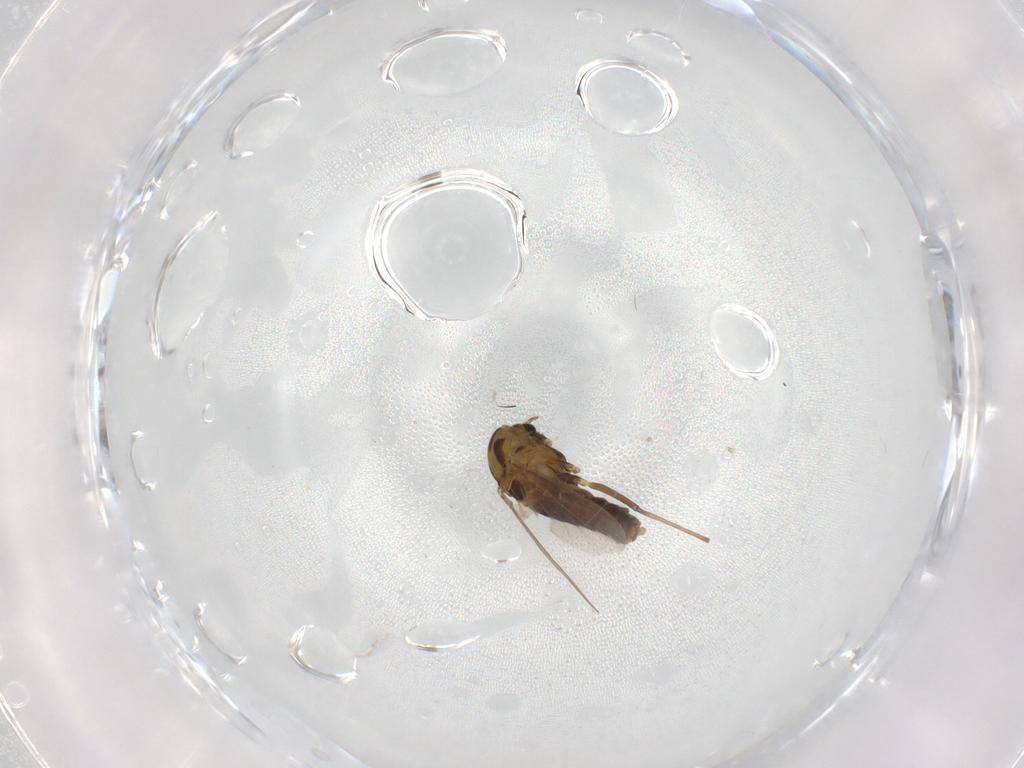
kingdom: Animalia
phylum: Arthropoda
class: Insecta
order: Diptera
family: Chironomidae
